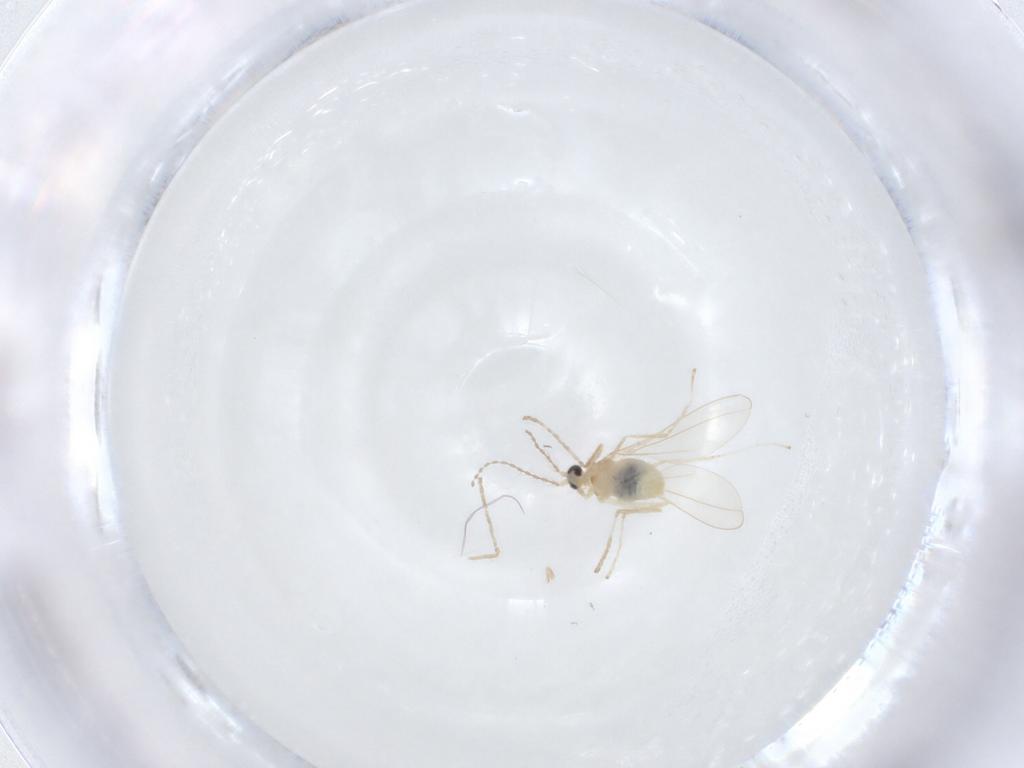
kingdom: Animalia
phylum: Arthropoda
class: Insecta
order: Diptera
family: Cecidomyiidae
